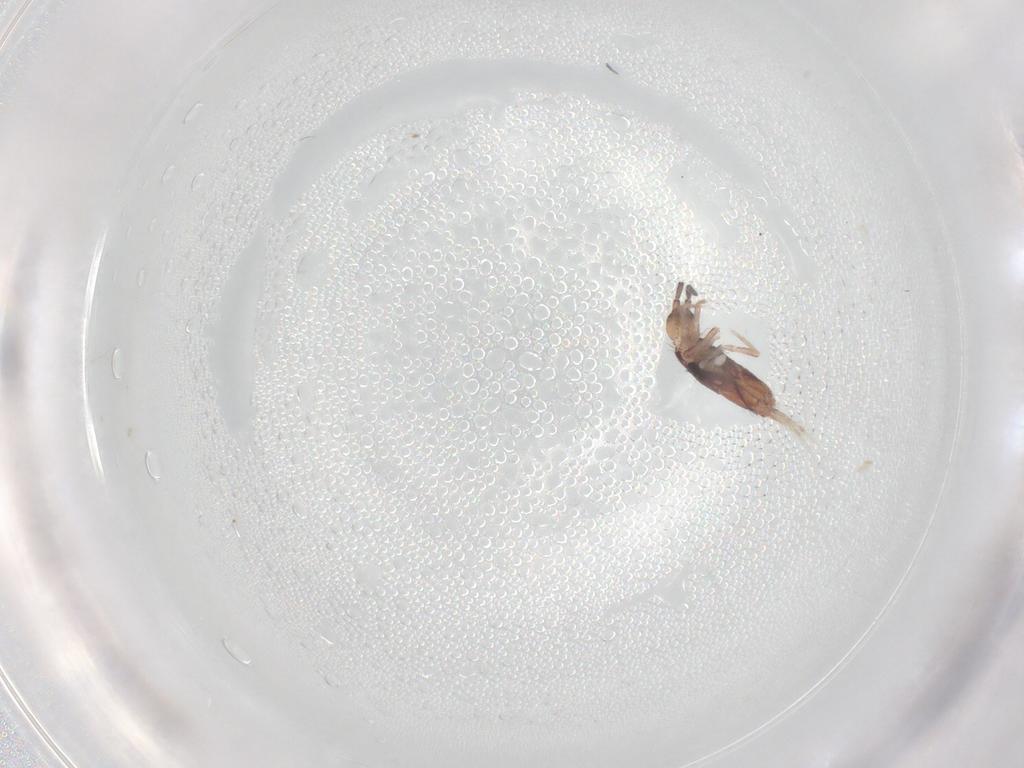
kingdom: Animalia
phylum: Arthropoda
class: Collembola
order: Entomobryomorpha
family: Entomobryidae
